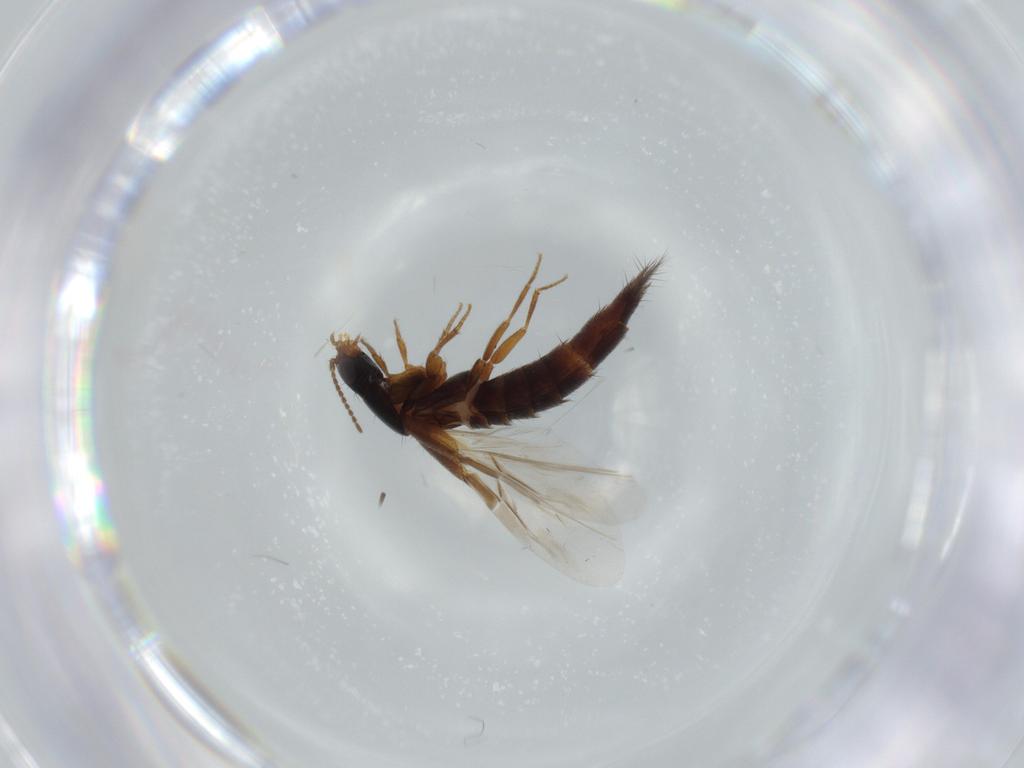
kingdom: Animalia
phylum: Arthropoda
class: Insecta
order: Coleoptera
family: Staphylinidae
